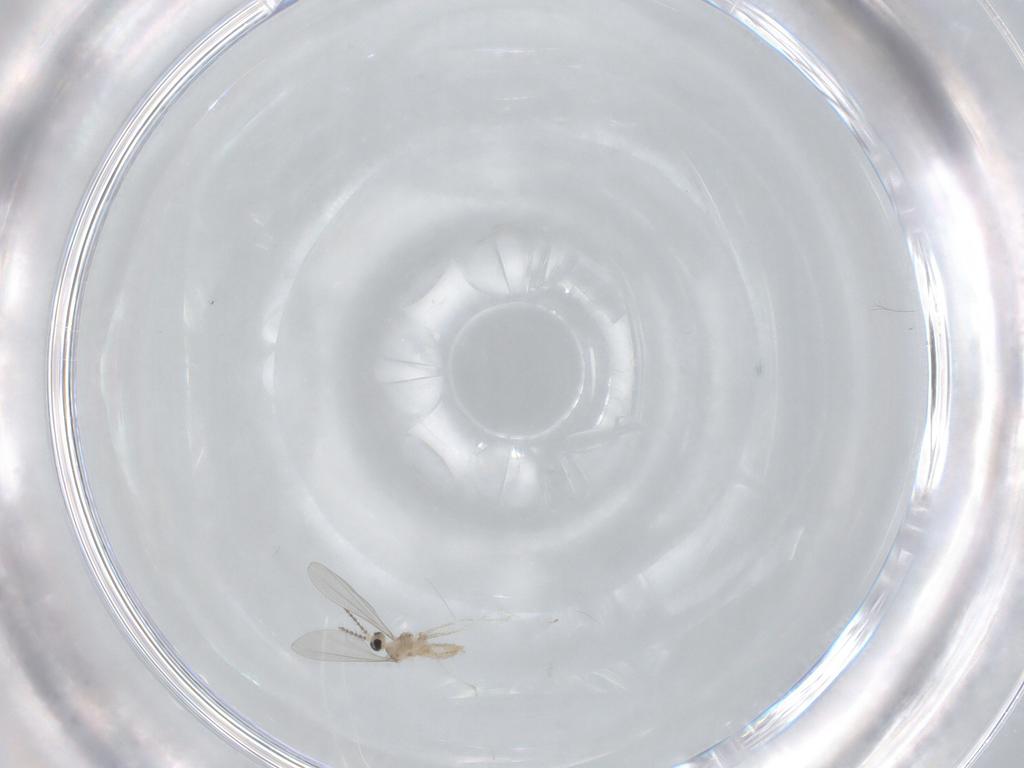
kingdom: Animalia
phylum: Arthropoda
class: Insecta
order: Diptera
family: Cecidomyiidae
